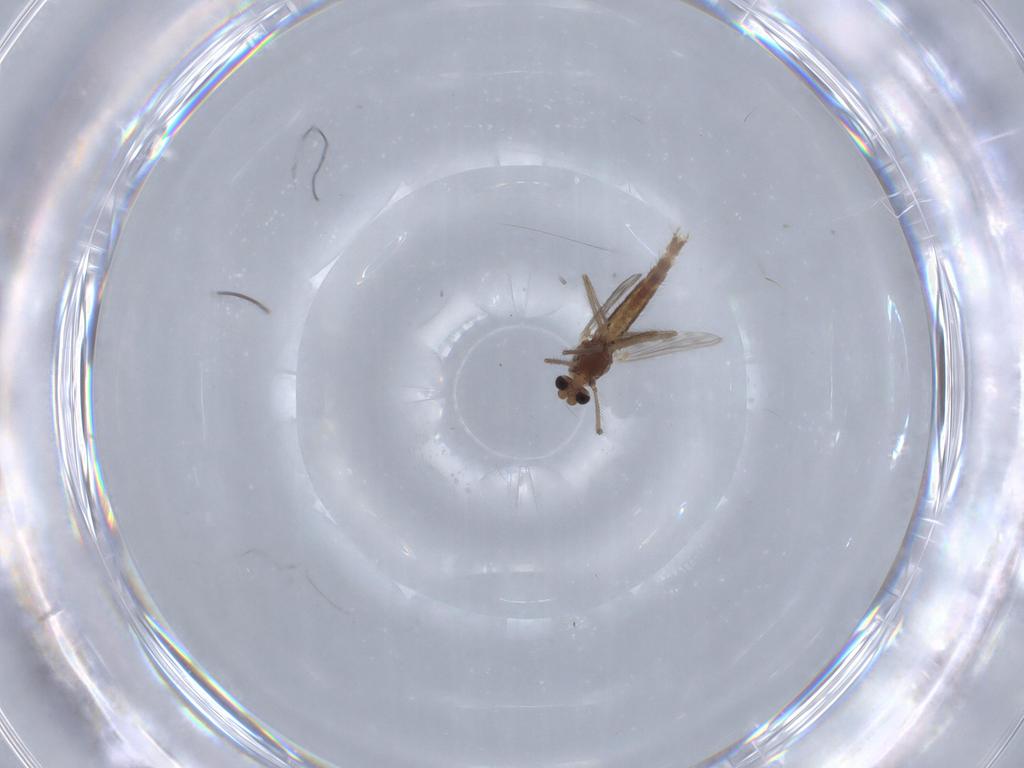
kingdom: Animalia
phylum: Arthropoda
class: Insecta
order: Diptera
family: Chironomidae
